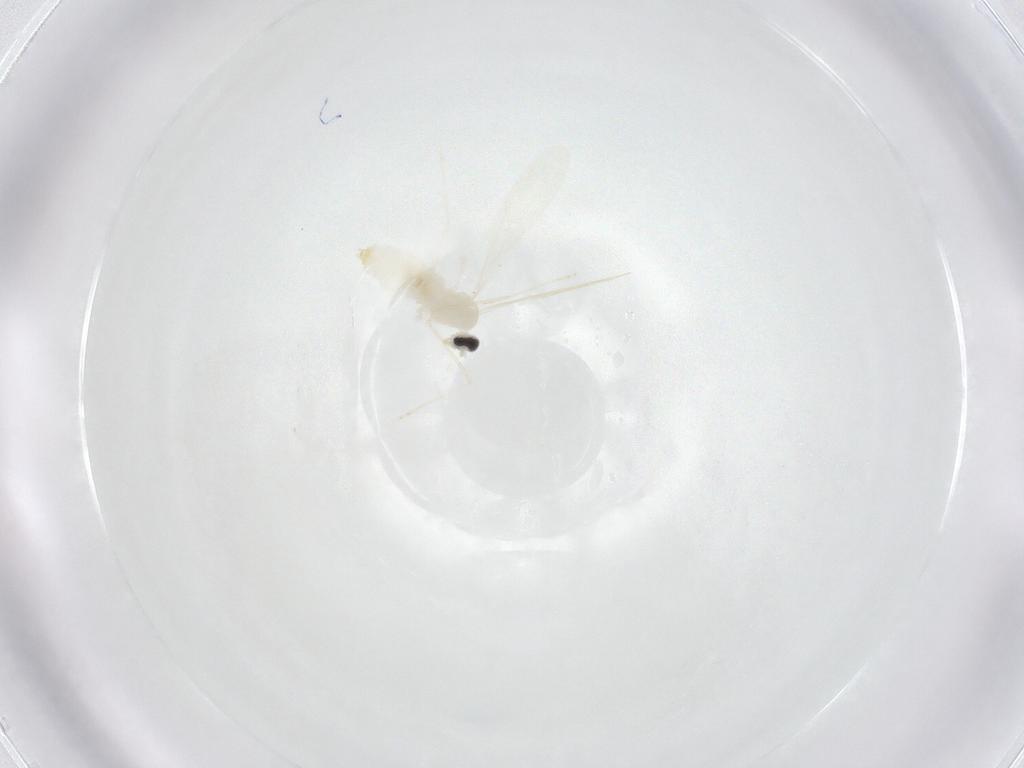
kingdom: Animalia
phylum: Arthropoda
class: Insecta
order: Diptera
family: Cecidomyiidae
